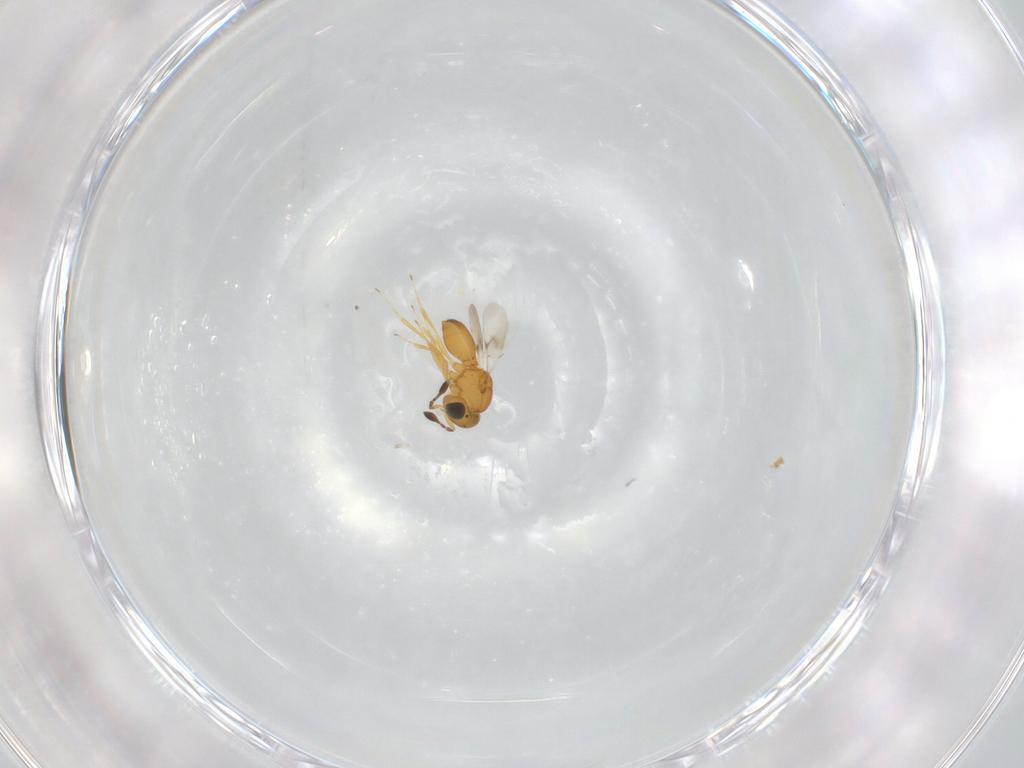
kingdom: Animalia
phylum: Arthropoda
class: Insecta
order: Hymenoptera
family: Scelionidae
